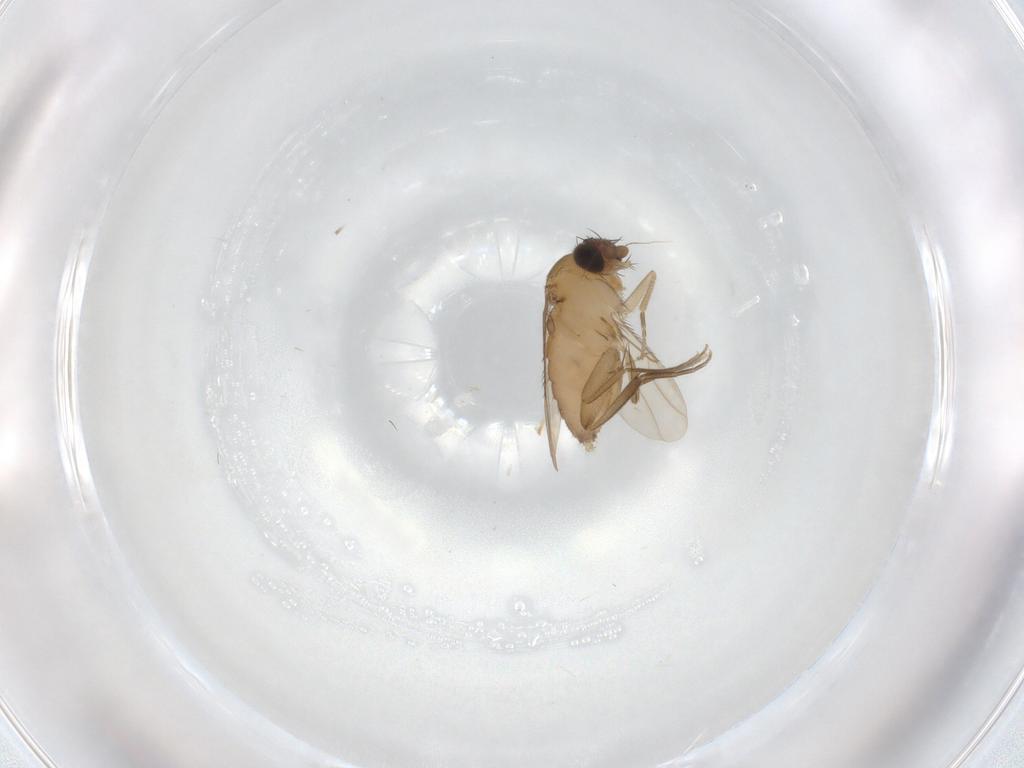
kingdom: Animalia
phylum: Arthropoda
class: Insecta
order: Diptera
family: Phoridae
